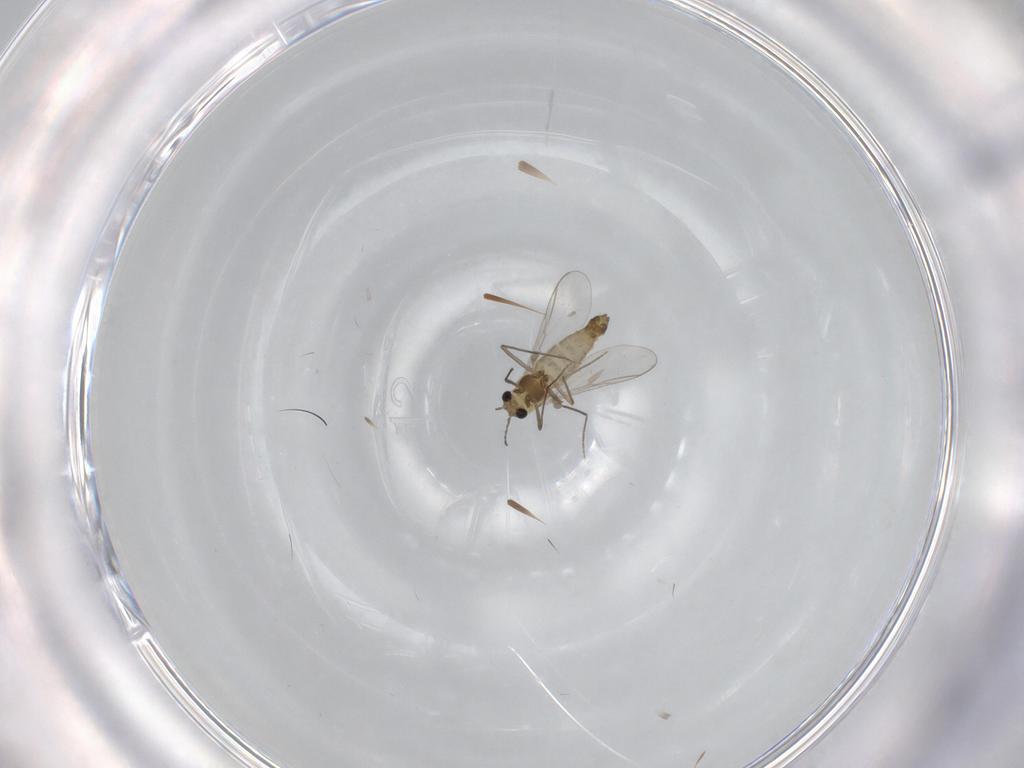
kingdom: Animalia
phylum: Arthropoda
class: Insecta
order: Diptera
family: Chironomidae
